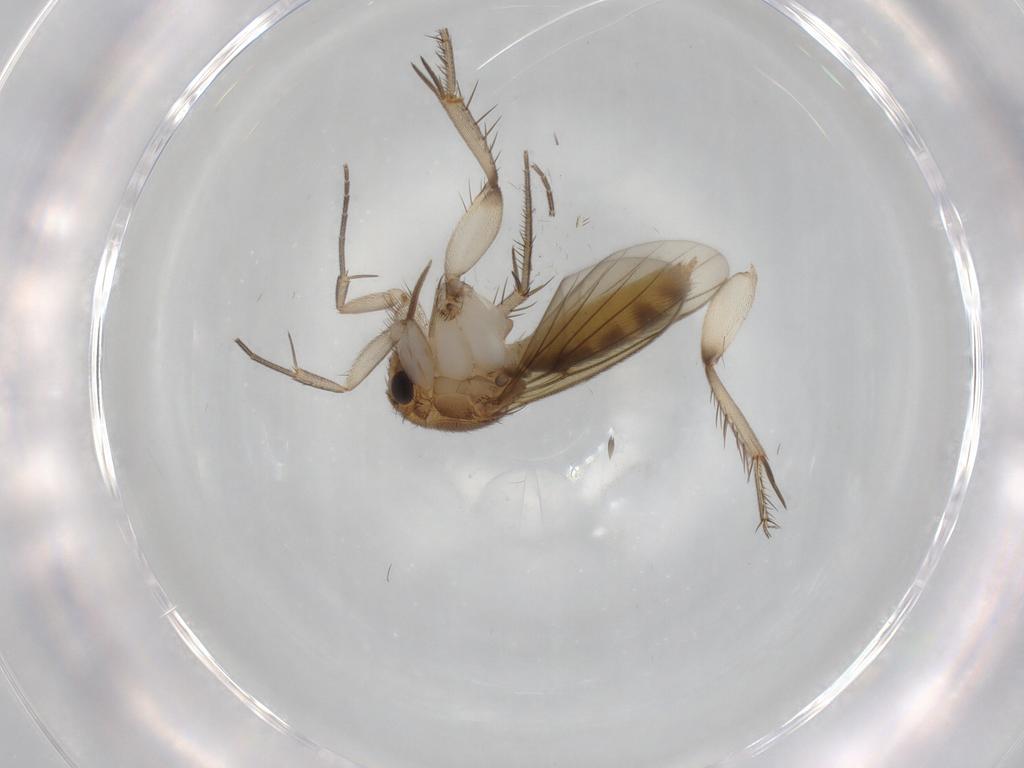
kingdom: Animalia
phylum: Arthropoda
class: Insecta
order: Diptera
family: Mycetophilidae
